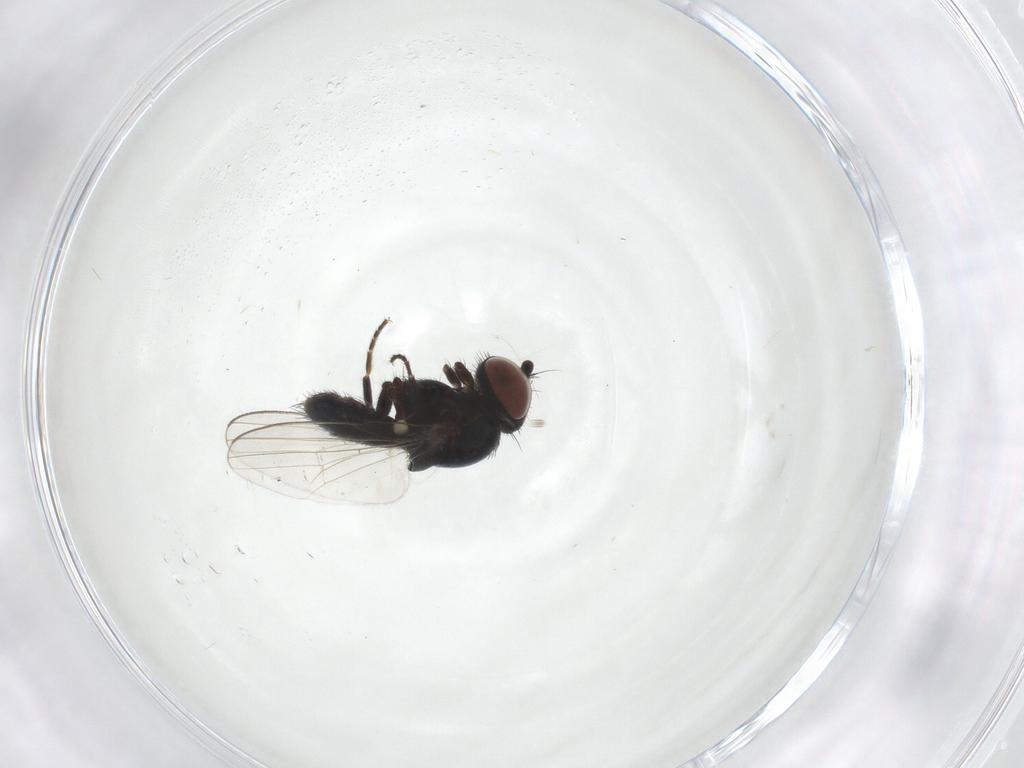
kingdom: Animalia
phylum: Arthropoda
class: Insecta
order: Diptera
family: Milichiidae
